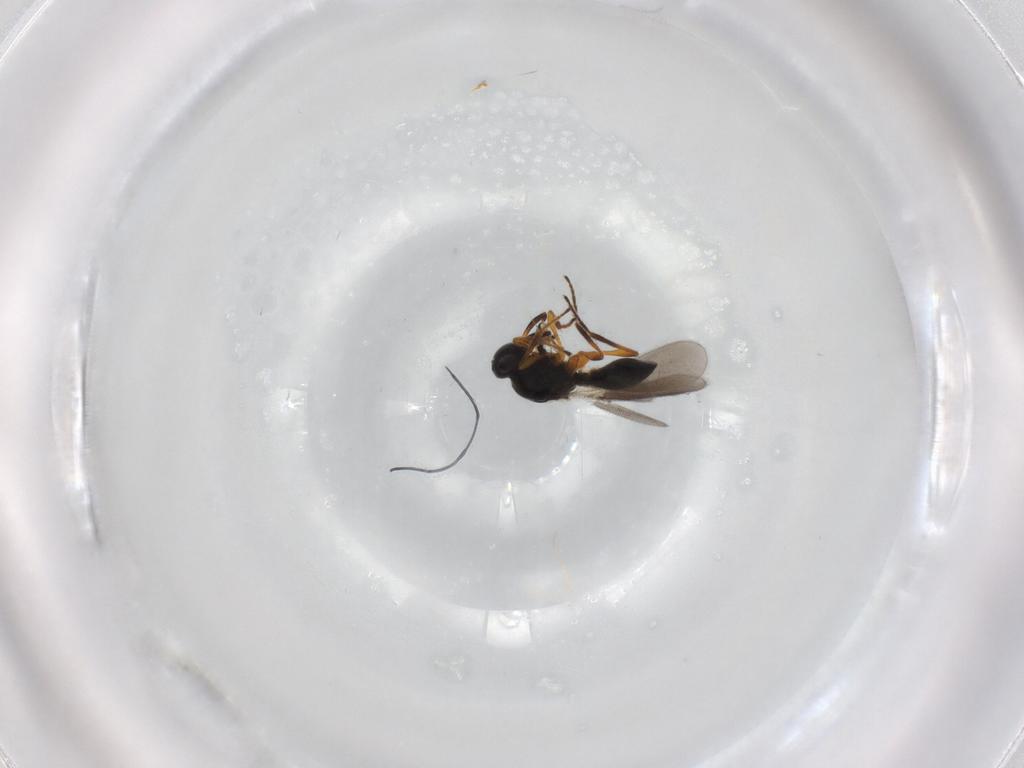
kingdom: Animalia
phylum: Arthropoda
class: Insecta
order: Hymenoptera
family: Platygastridae
